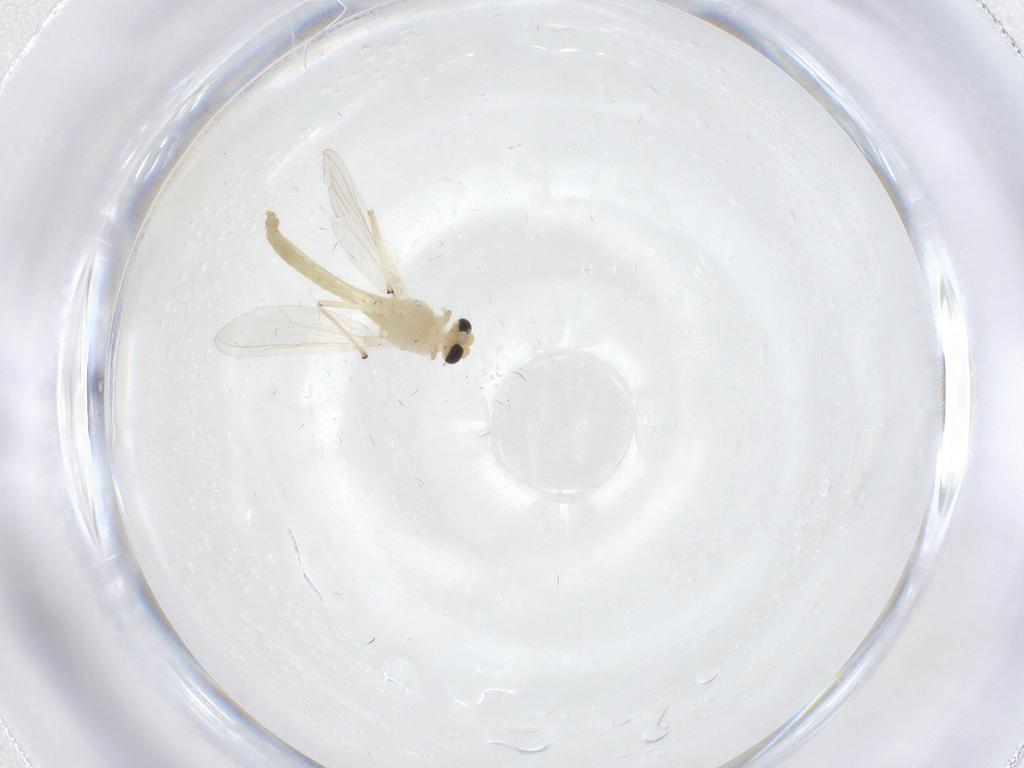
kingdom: Animalia
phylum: Arthropoda
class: Insecta
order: Diptera
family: Chironomidae
